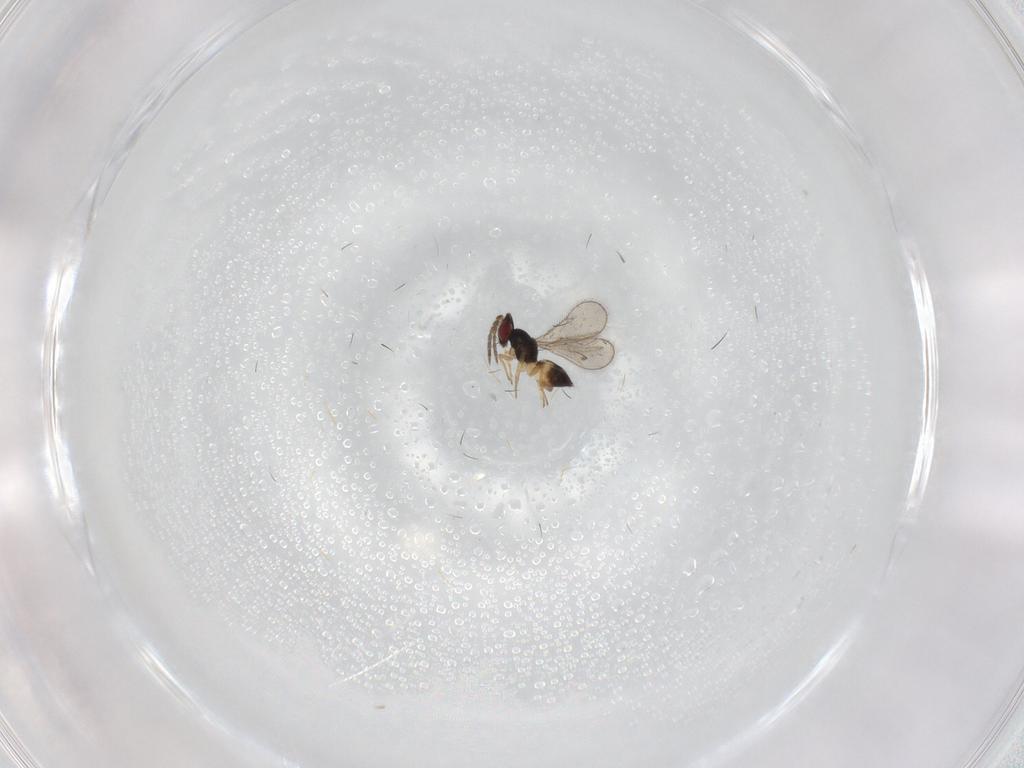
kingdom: Animalia
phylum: Arthropoda
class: Insecta
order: Hymenoptera
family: Eulophidae
